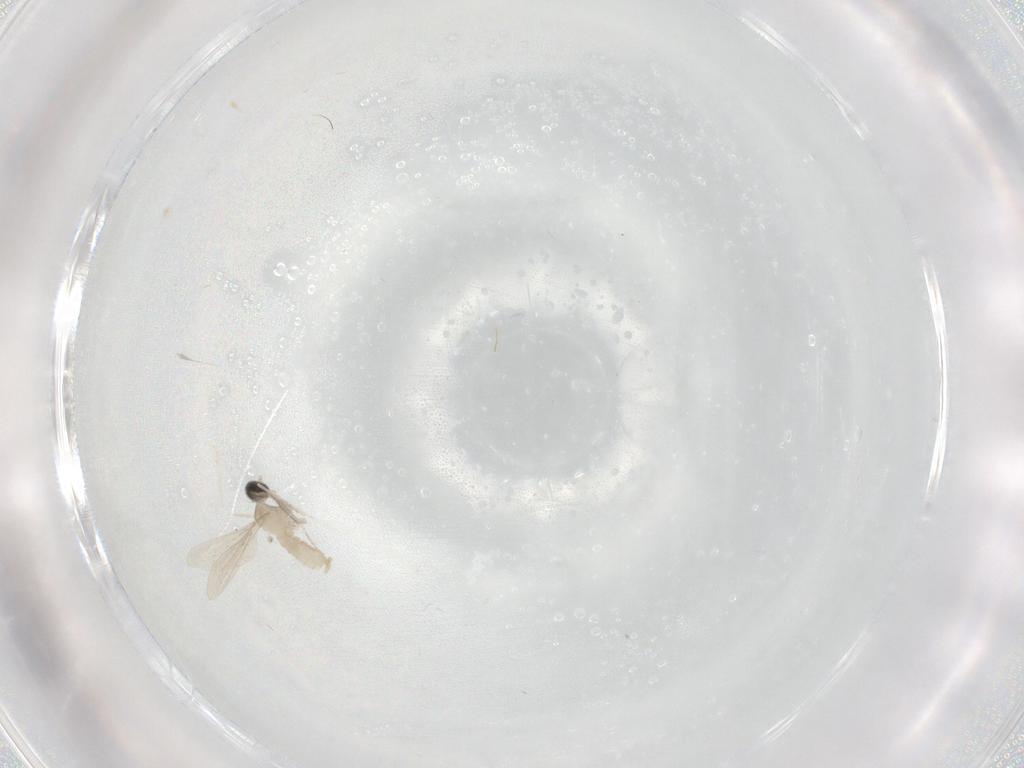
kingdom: Animalia
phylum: Arthropoda
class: Insecta
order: Diptera
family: Cecidomyiidae
